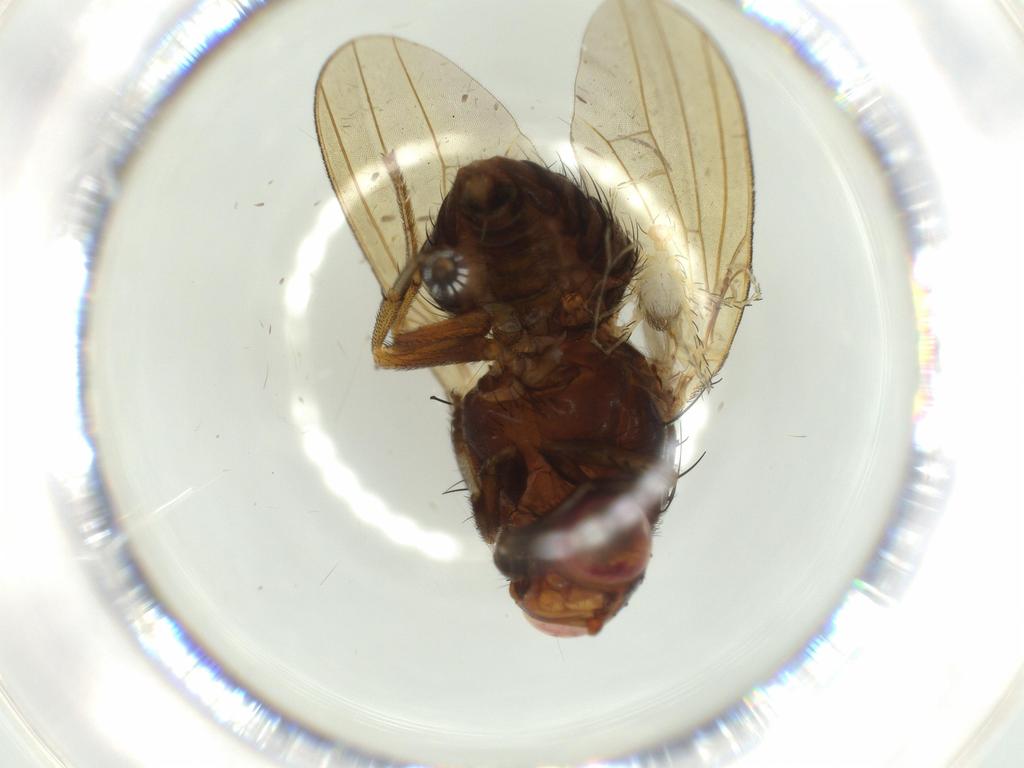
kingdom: Animalia
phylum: Arthropoda
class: Arachnida
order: Trombidiformes
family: Erythraeidae
